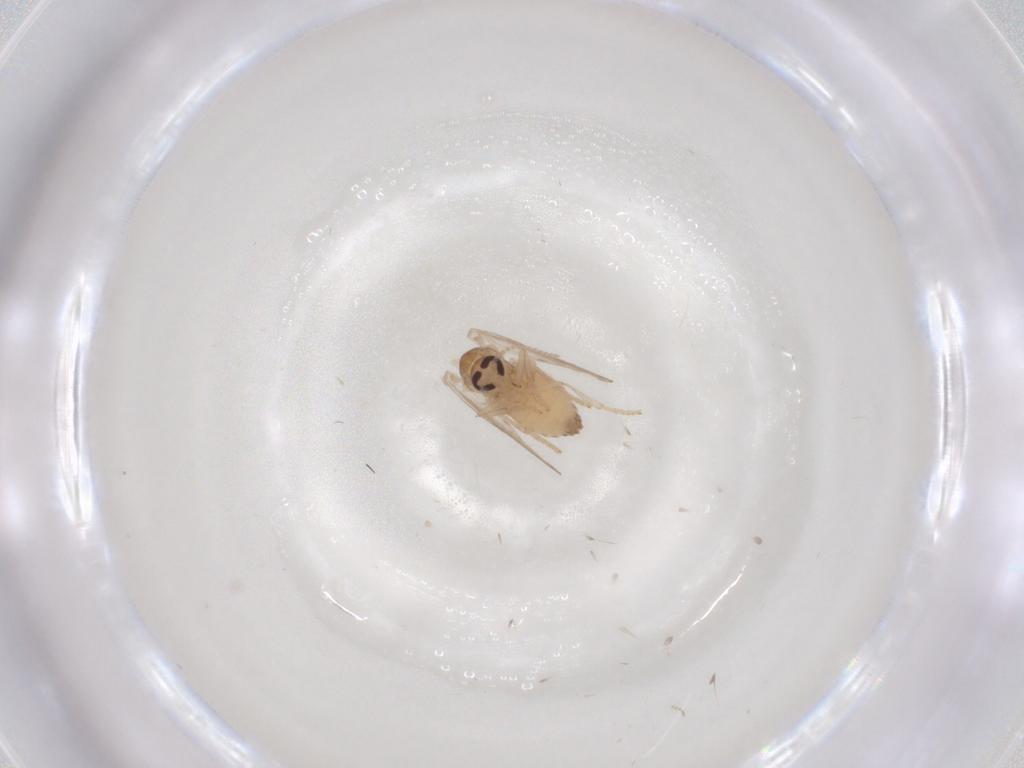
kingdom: Animalia
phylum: Arthropoda
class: Insecta
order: Diptera
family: Psychodidae
